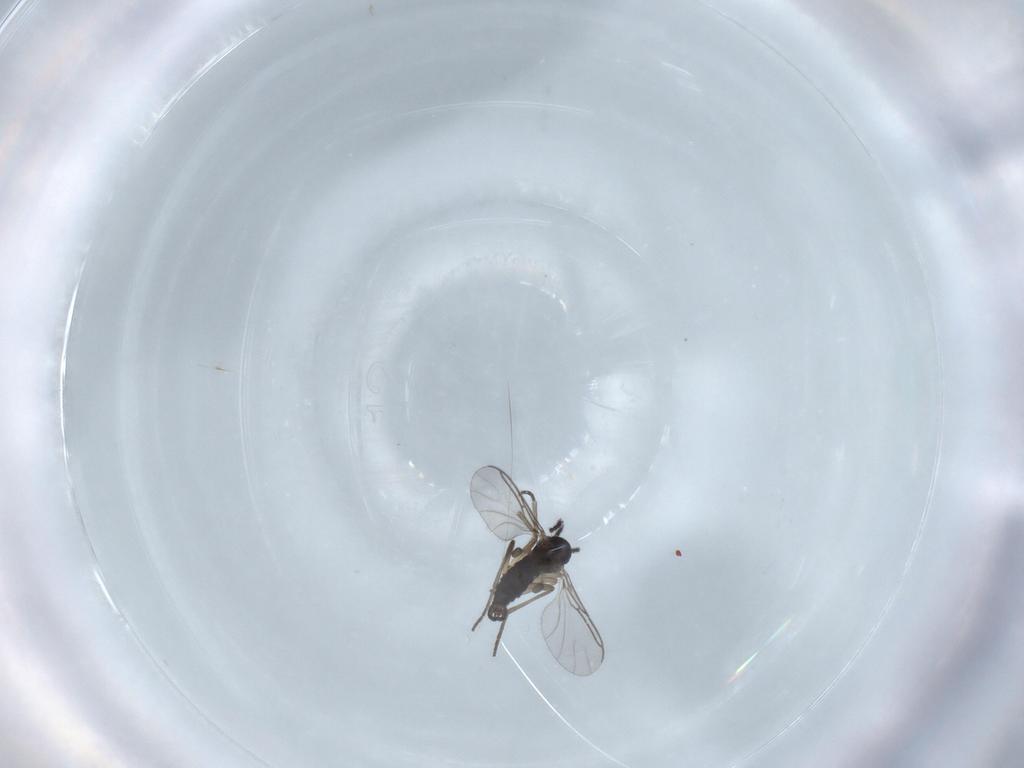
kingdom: Animalia
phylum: Arthropoda
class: Insecta
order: Diptera
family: Sciaridae
